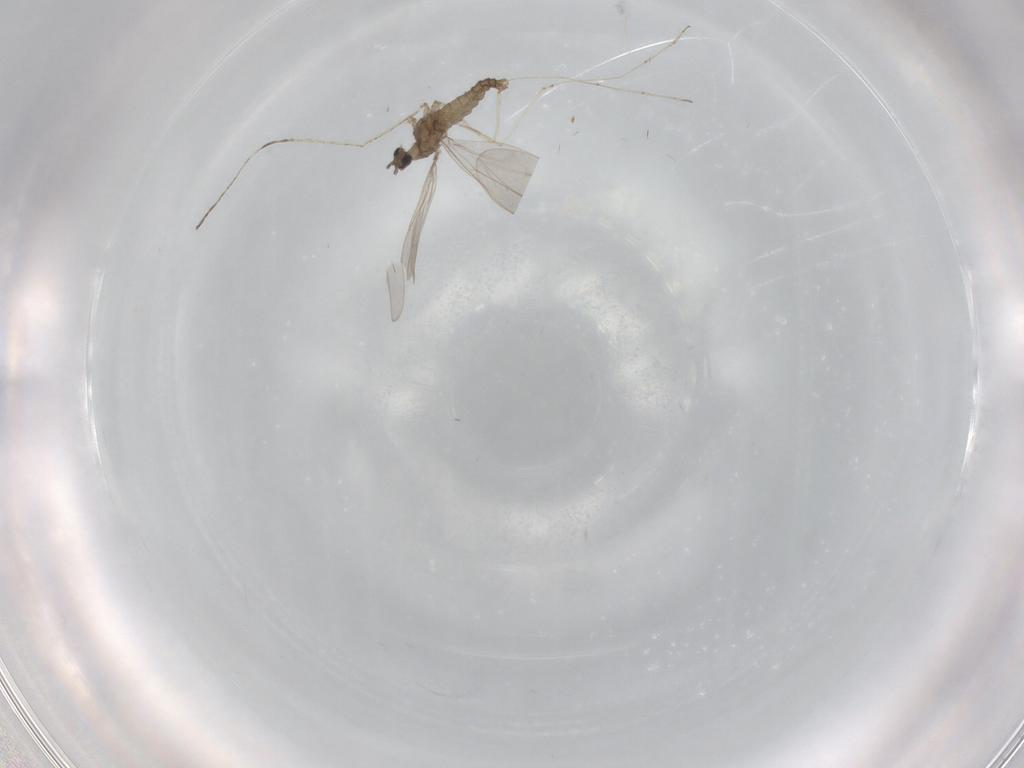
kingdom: Animalia
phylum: Arthropoda
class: Insecta
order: Diptera
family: Cecidomyiidae
